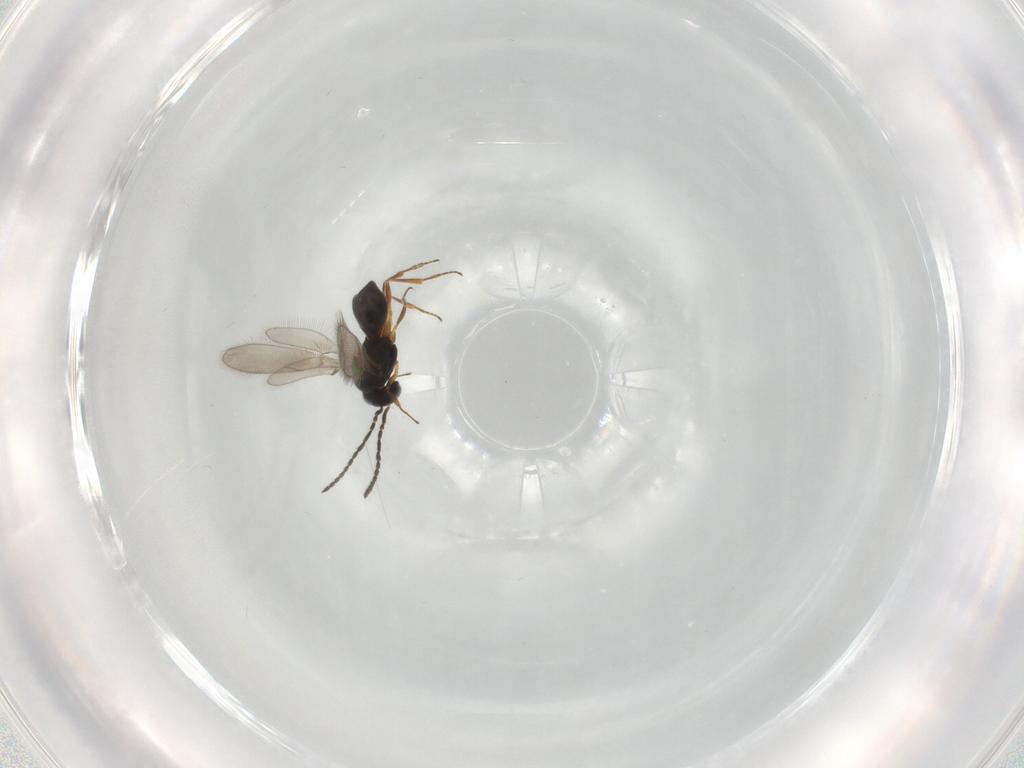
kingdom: Animalia
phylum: Arthropoda
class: Insecta
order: Hymenoptera
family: Scelionidae
